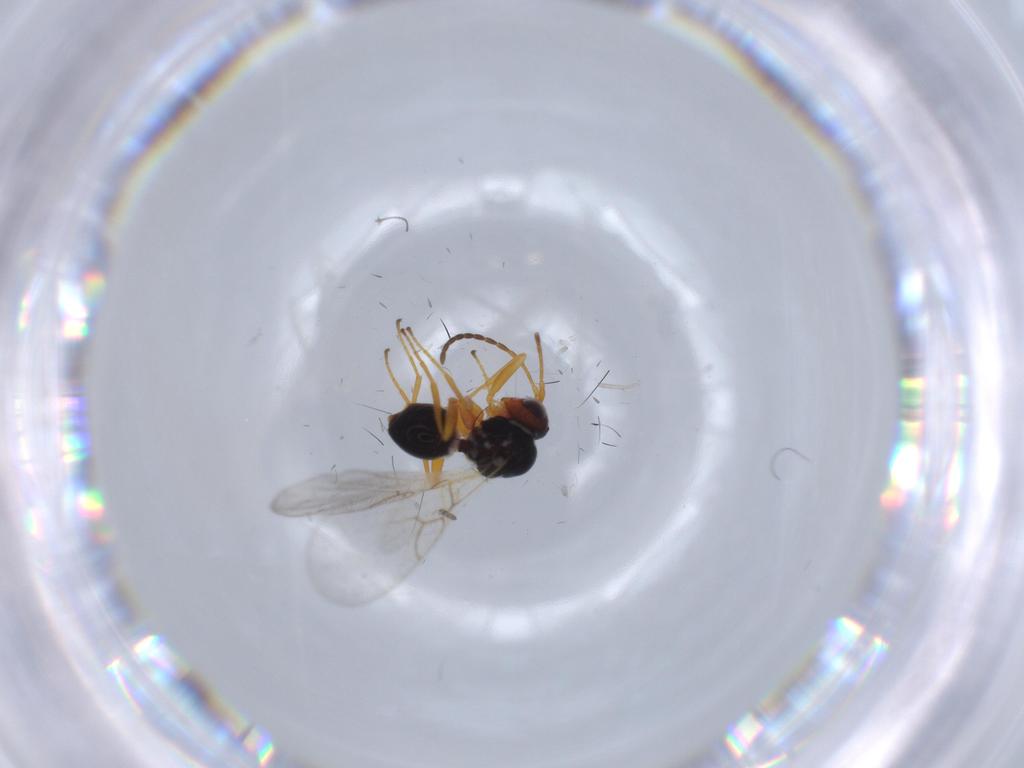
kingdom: Animalia
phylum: Arthropoda
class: Insecta
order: Hymenoptera
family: Figitidae
